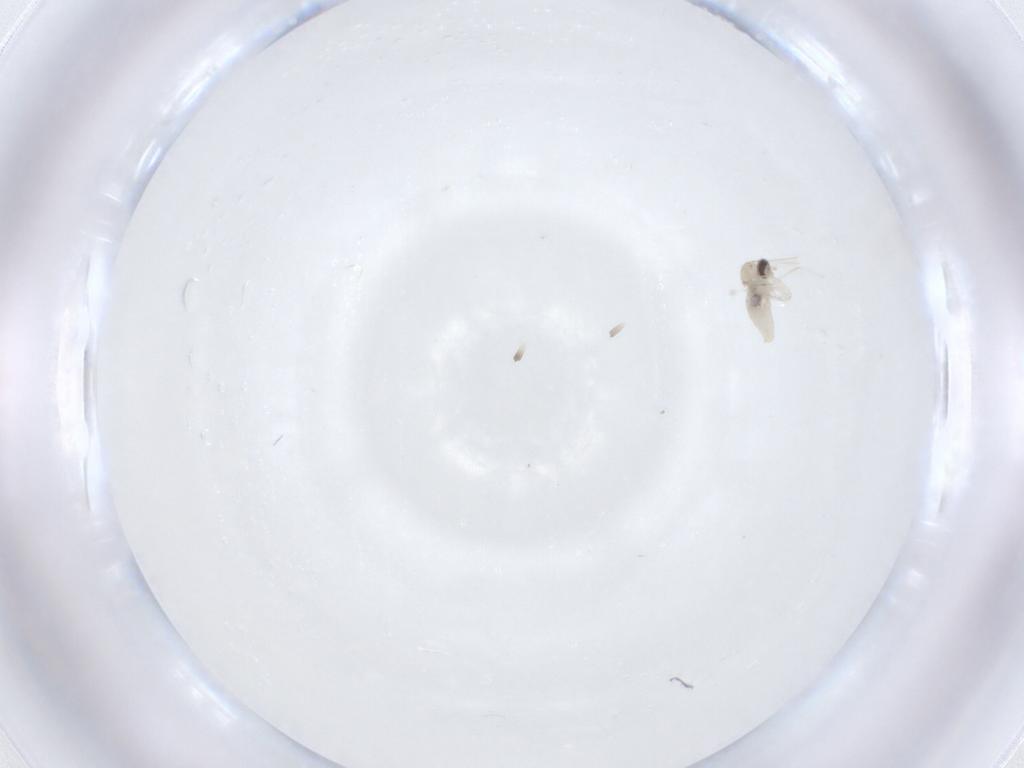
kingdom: Animalia
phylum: Arthropoda
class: Insecta
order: Diptera
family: Cecidomyiidae
